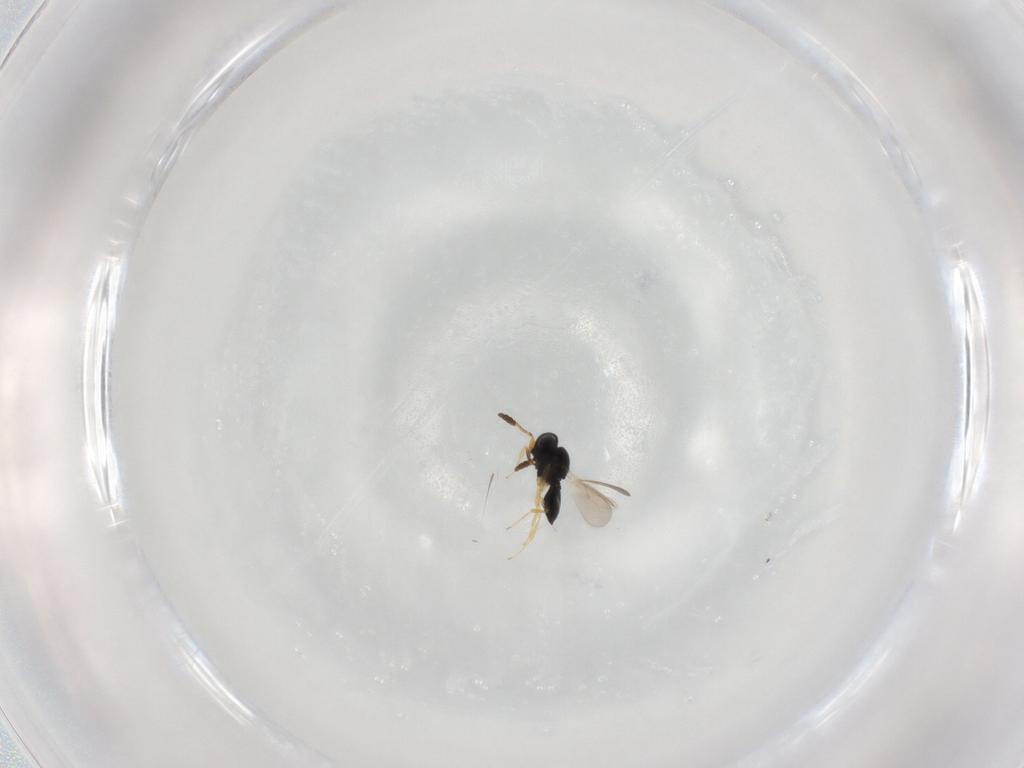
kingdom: Animalia
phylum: Arthropoda
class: Insecta
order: Hymenoptera
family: Scelionidae
